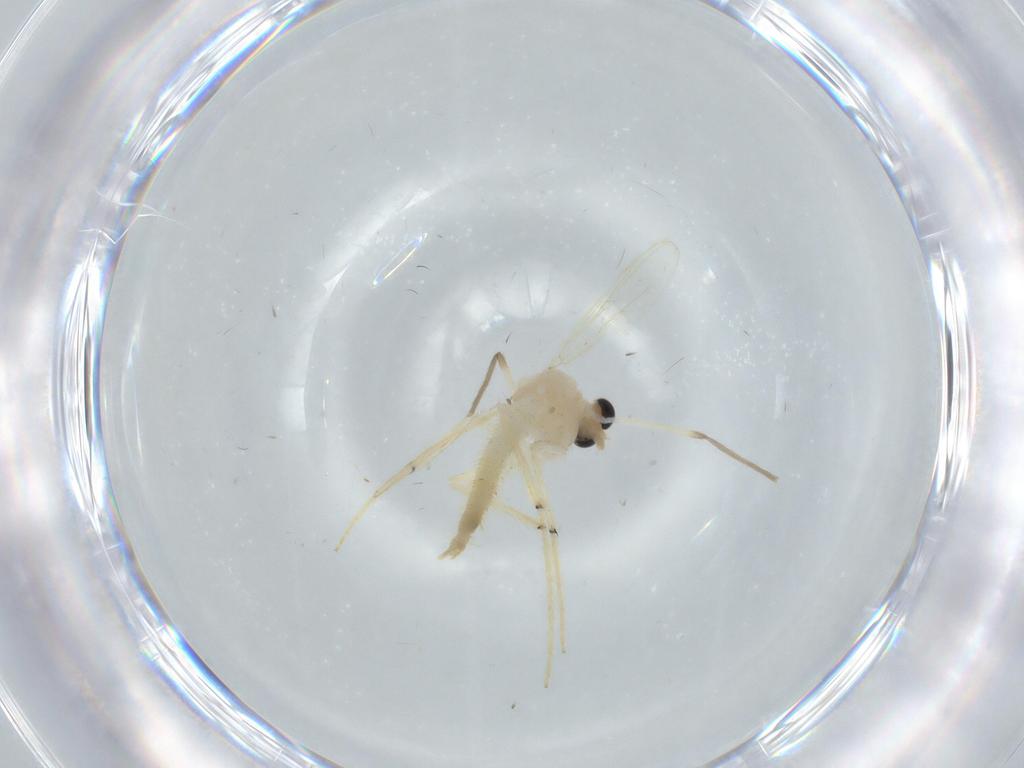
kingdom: Animalia
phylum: Arthropoda
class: Insecta
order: Diptera
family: Chironomidae
